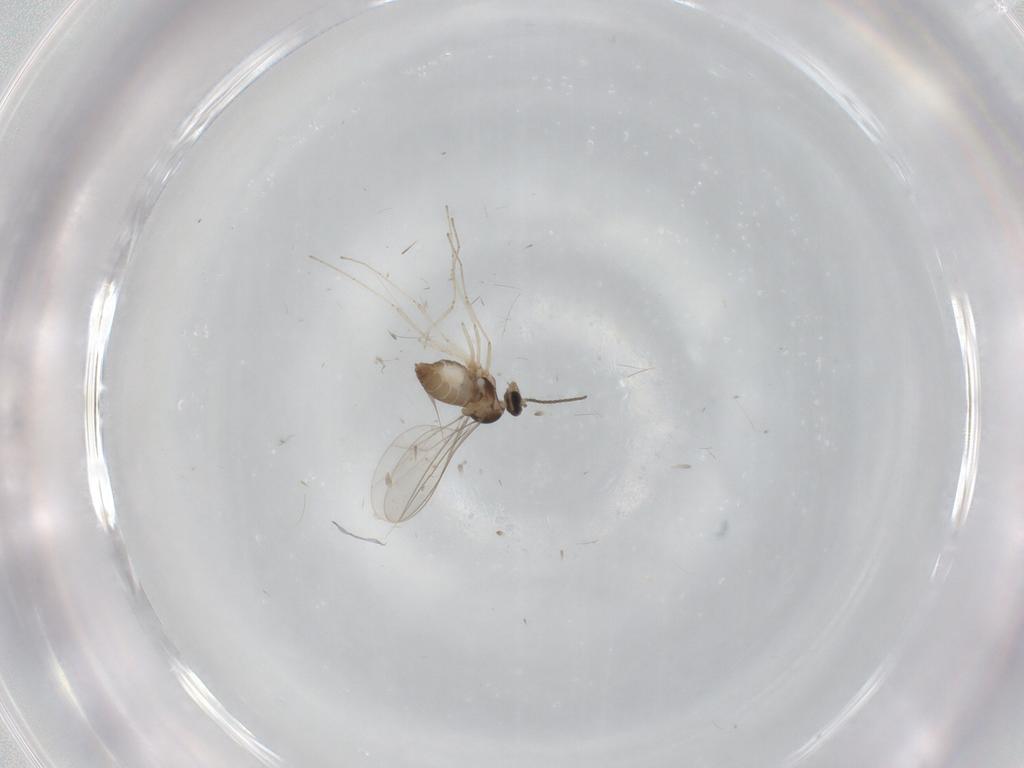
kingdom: Animalia
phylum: Arthropoda
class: Insecta
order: Diptera
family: Cecidomyiidae
